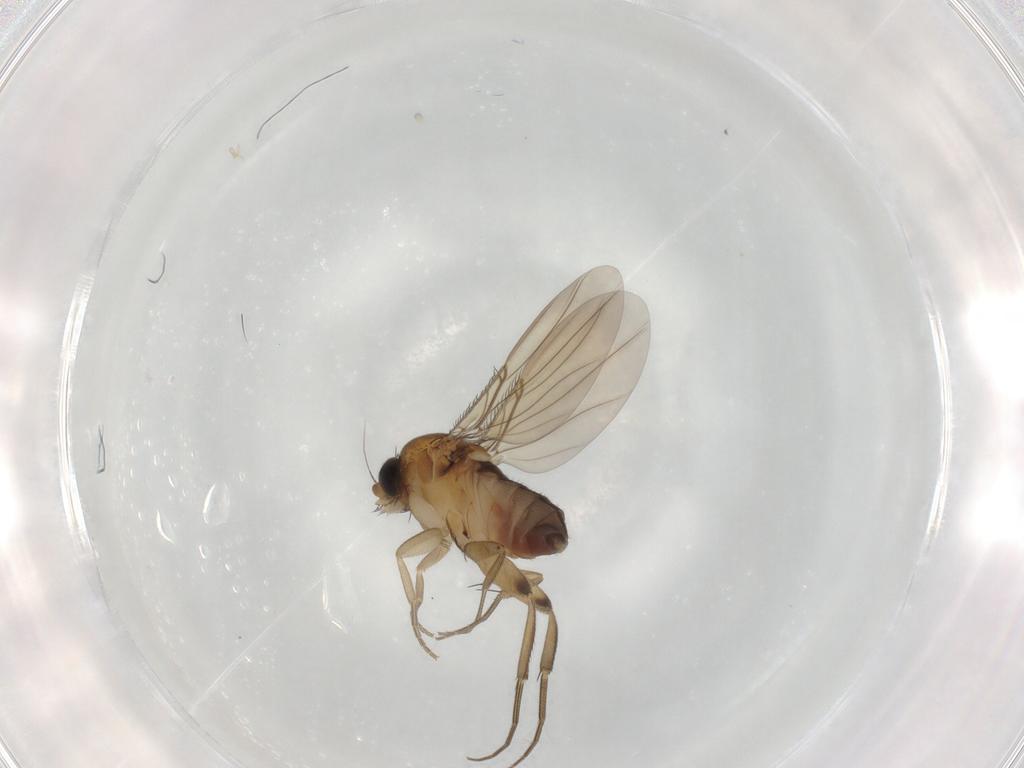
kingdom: Animalia
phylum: Arthropoda
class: Insecta
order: Diptera
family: Phoridae
